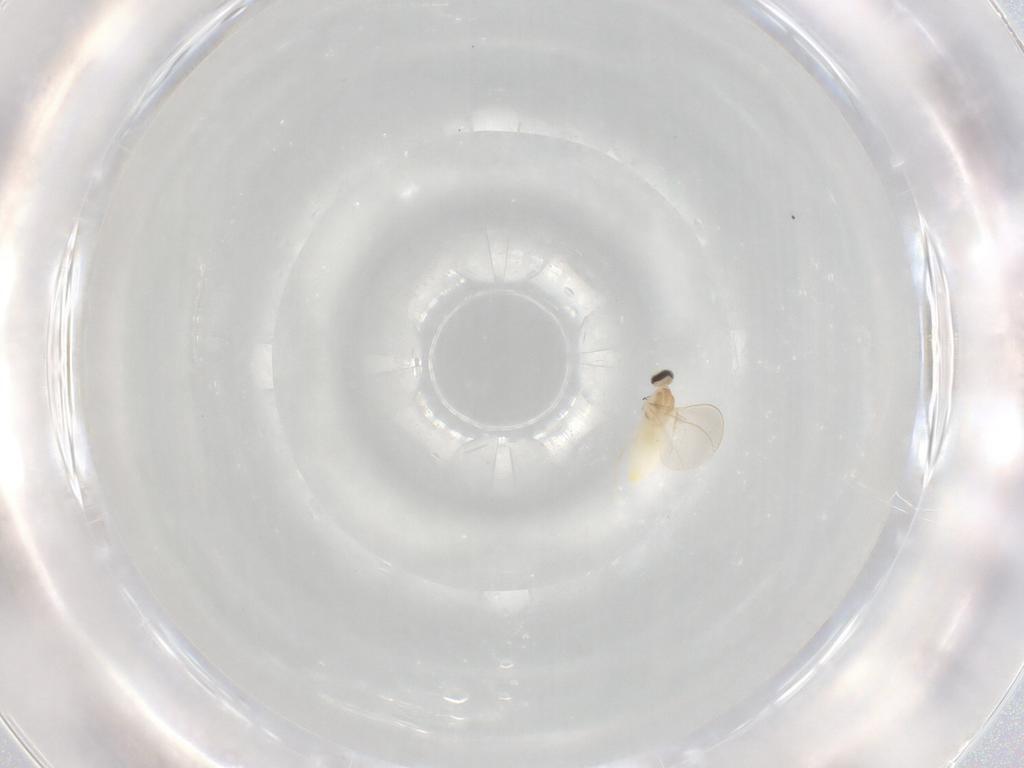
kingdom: Animalia
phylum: Arthropoda
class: Insecta
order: Diptera
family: Cecidomyiidae
